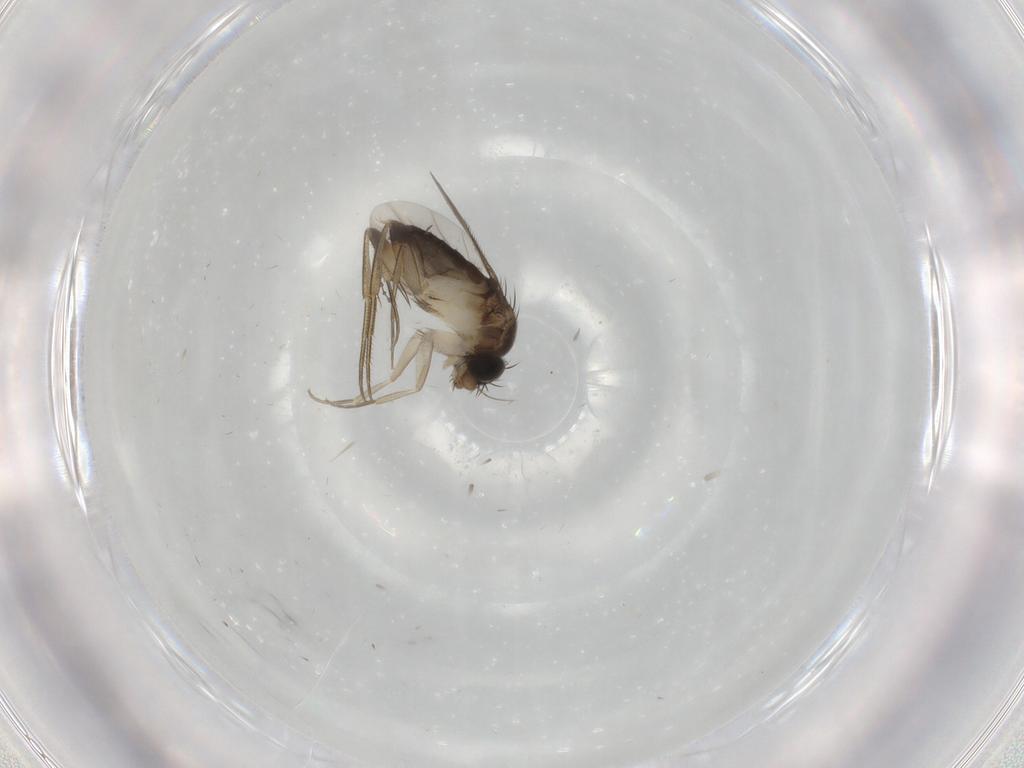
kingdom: Animalia
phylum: Arthropoda
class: Insecta
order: Diptera
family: Phoridae
